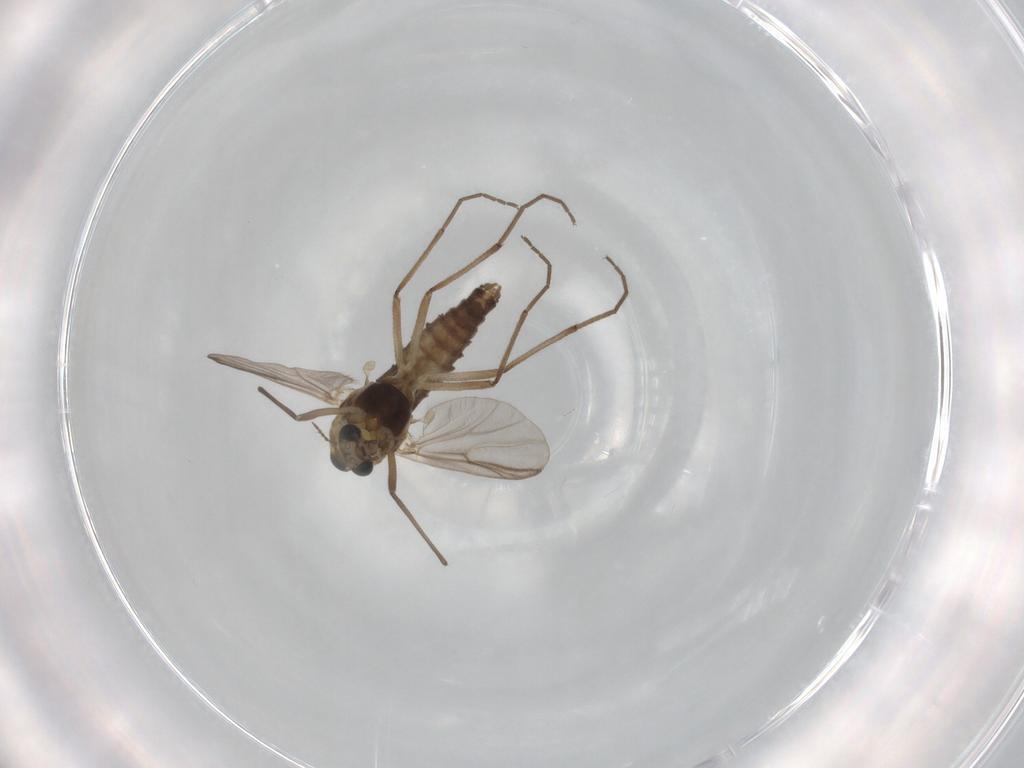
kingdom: Animalia
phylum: Arthropoda
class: Insecta
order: Diptera
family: Chironomidae
